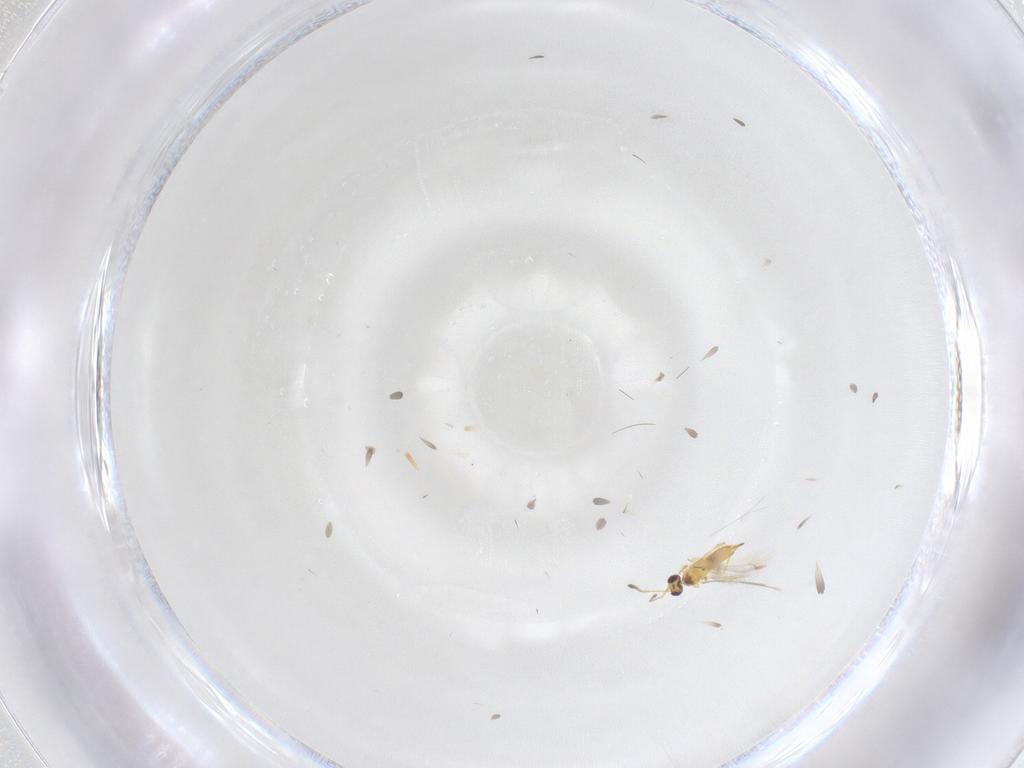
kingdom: Animalia
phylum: Arthropoda
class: Insecta
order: Hymenoptera
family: Mymaridae
